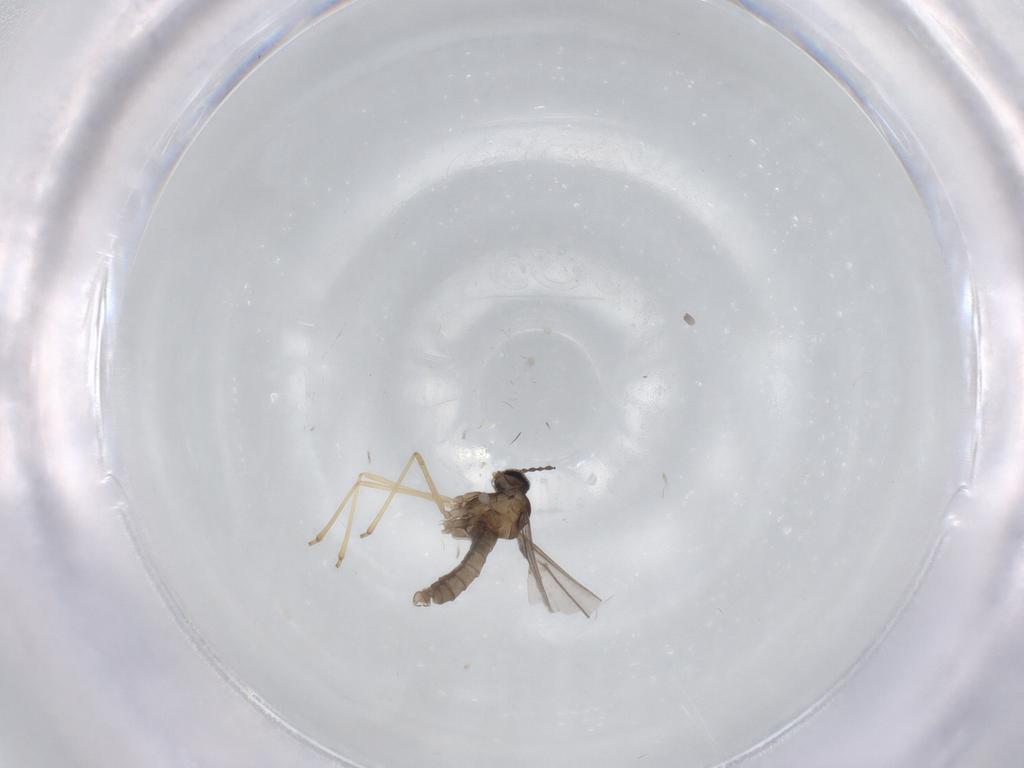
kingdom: Animalia
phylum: Arthropoda
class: Insecta
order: Diptera
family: Cecidomyiidae
